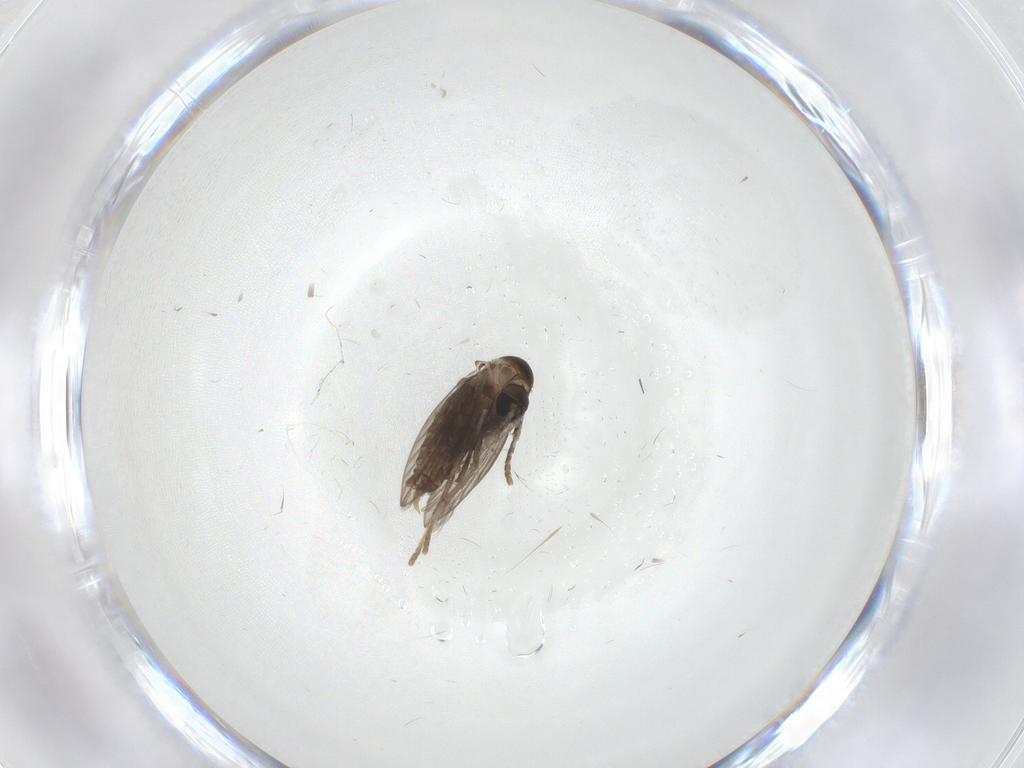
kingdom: Animalia
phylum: Arthropoda
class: Insecta
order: Diptera
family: Psychodidae
